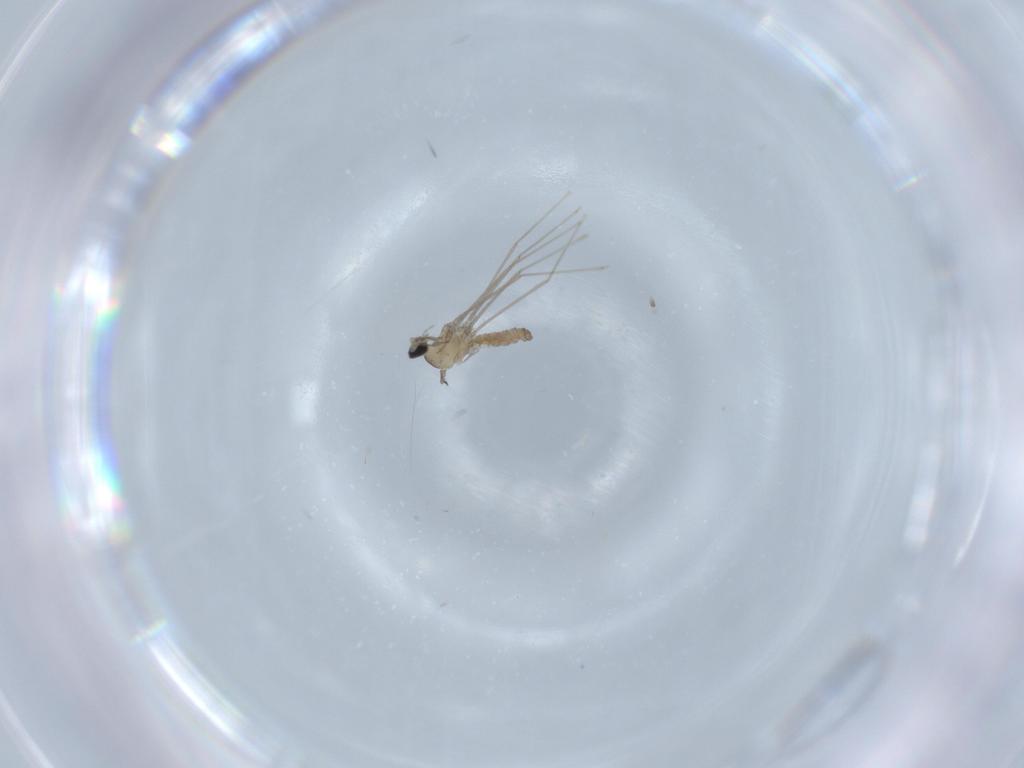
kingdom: Animalia
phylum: Arthropoda
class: Insecta
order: Diptera
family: Cecidomyiidae
